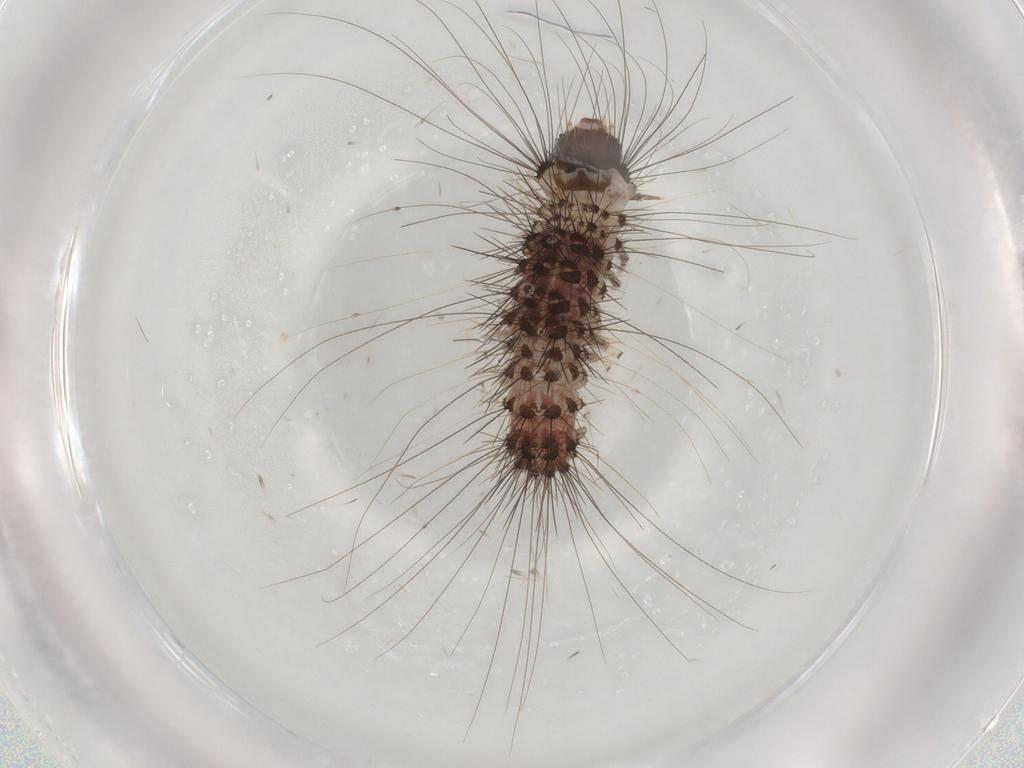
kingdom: Animalia
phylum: Arthropoda
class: Insecta
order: Lepidoptera
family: Scythrididae
